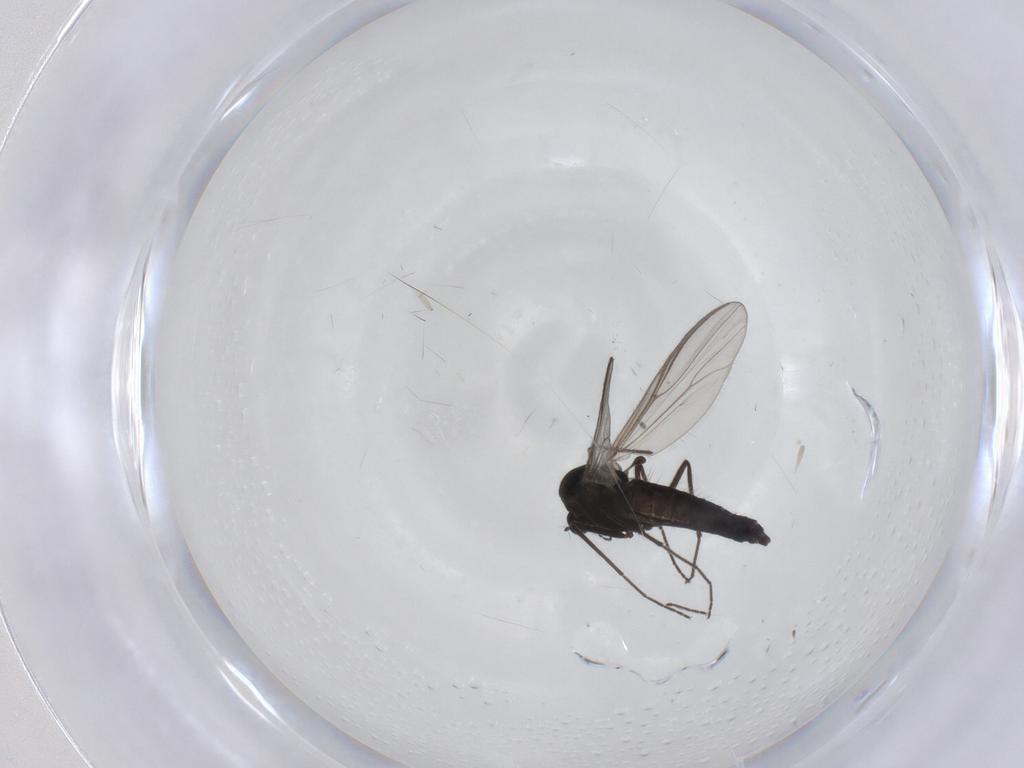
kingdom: Animalia
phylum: Arthropoda
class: Insecta
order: Diptera
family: Chironomidae
